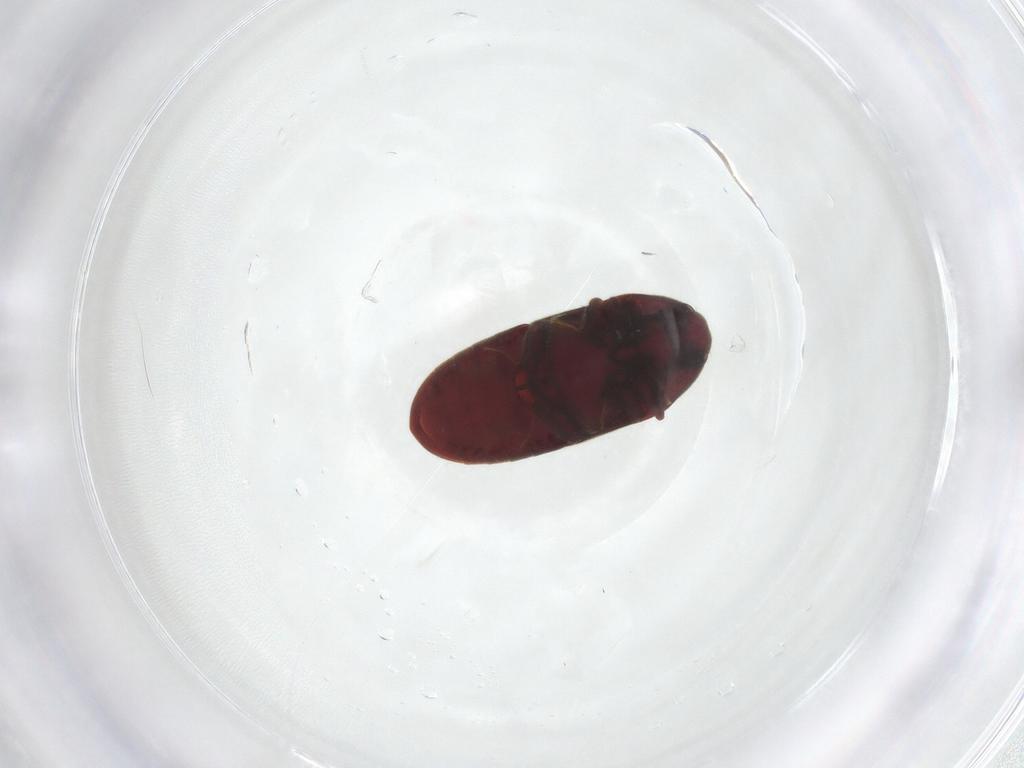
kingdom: Animalia
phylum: Arthropoda
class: Insecta
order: Coleoptera
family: Throscidae
